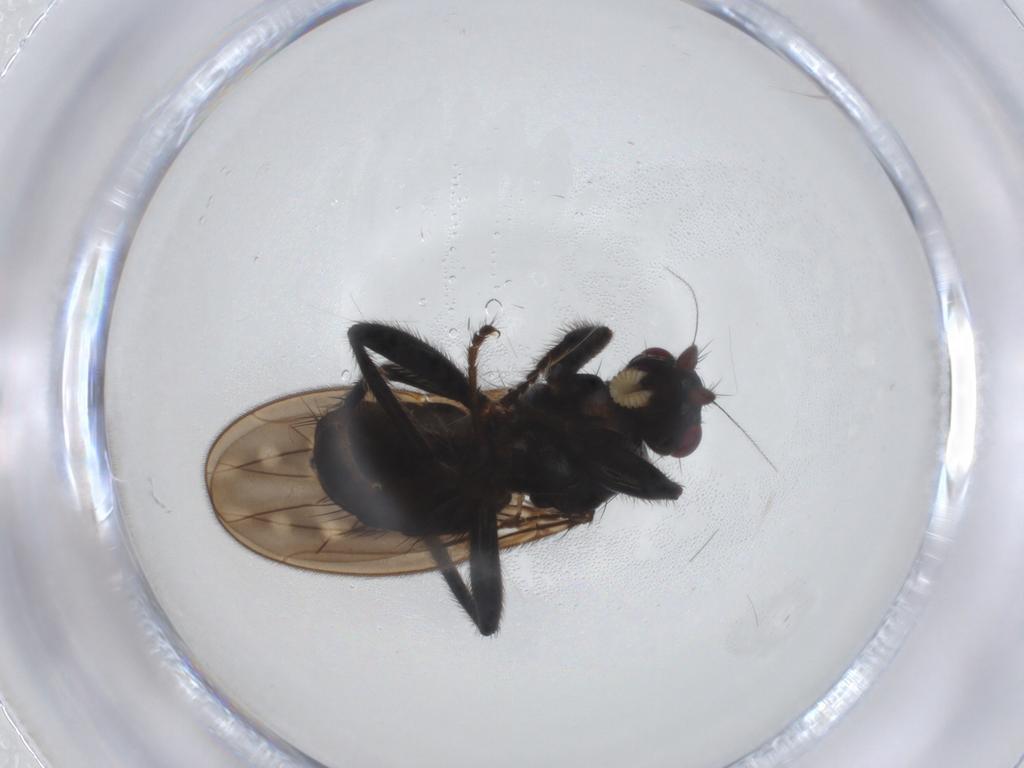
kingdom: Animalia
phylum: Arthropoda
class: Insecta
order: Diptera
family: Sphaeroceridae
